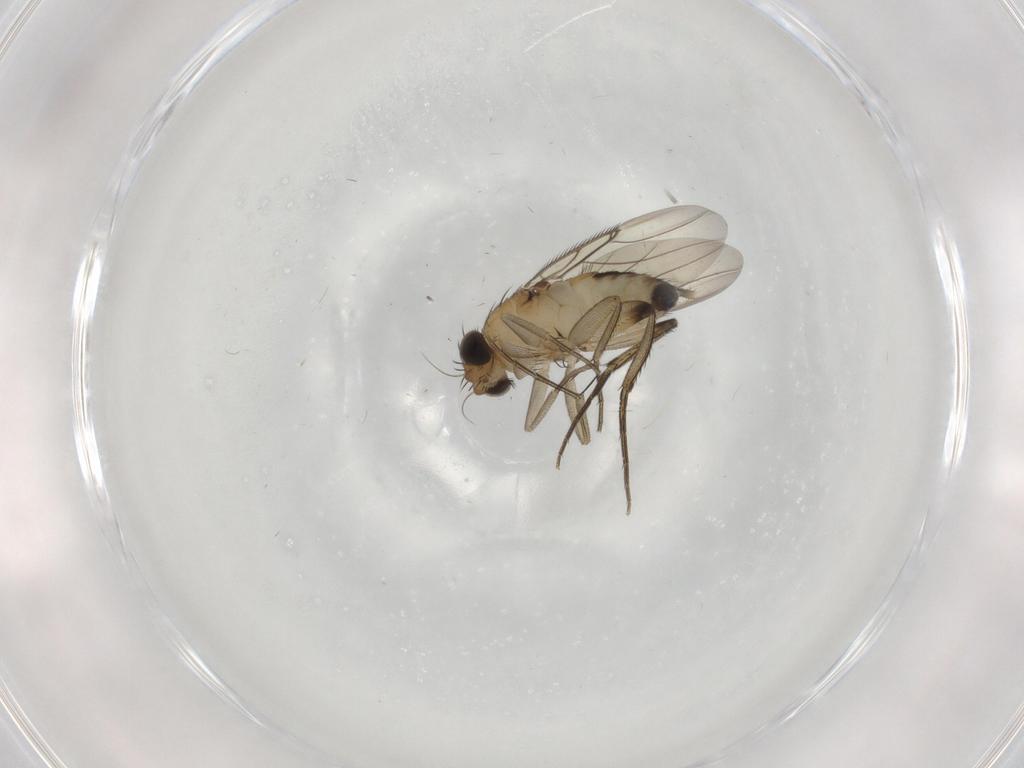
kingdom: Animalia
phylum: Arthropoda
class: Insecta
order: Diptera
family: Phoridae
